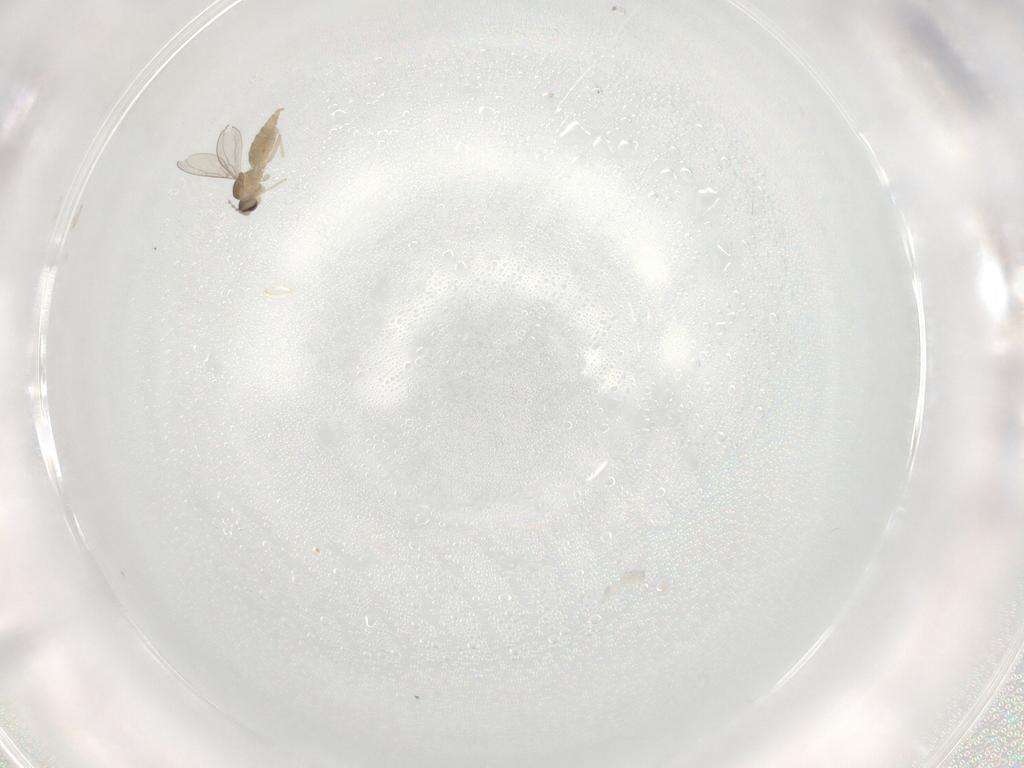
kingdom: Animalia
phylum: Arthropoda
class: Insecta
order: Diptera
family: Cecidomyiidae
